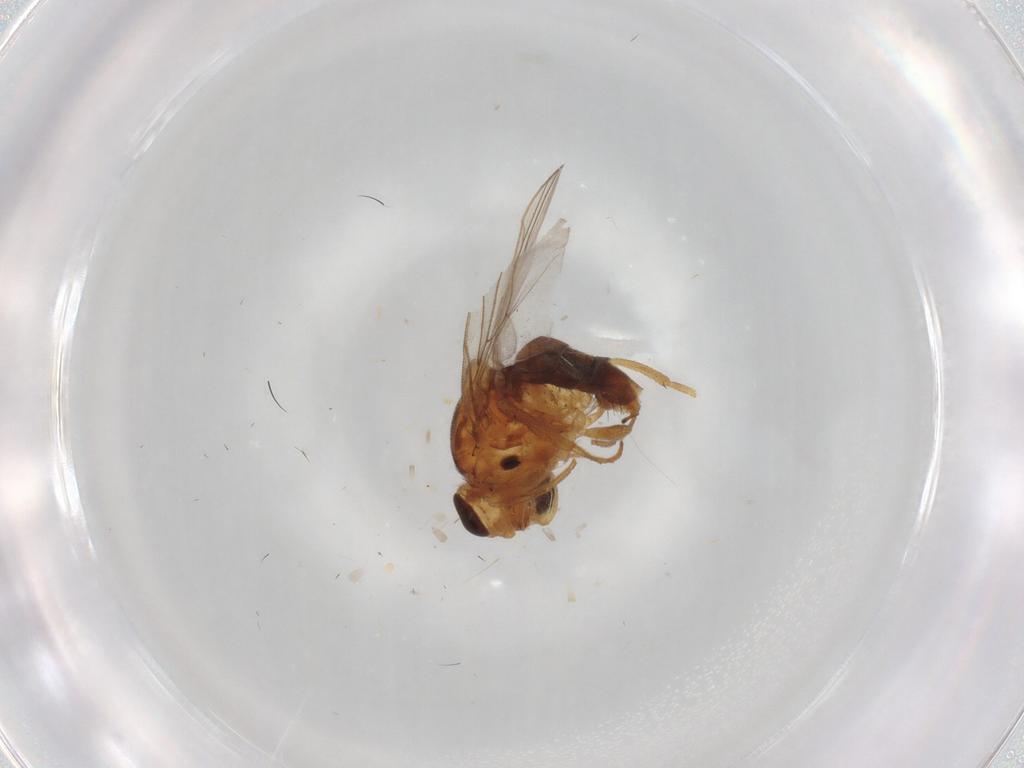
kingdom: Animalia
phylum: Arthropoda
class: Insecta
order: Diptera
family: Chloropidae
